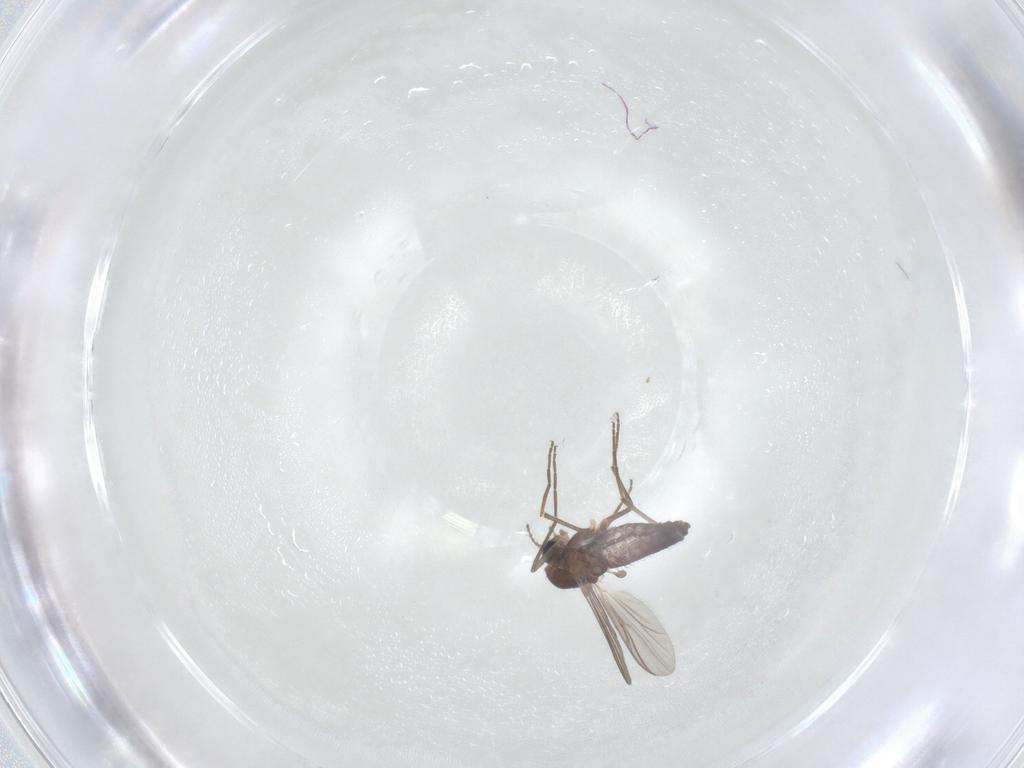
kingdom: Animalia
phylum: Arthropoda
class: Insecta
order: Diptera
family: Chironomidae
